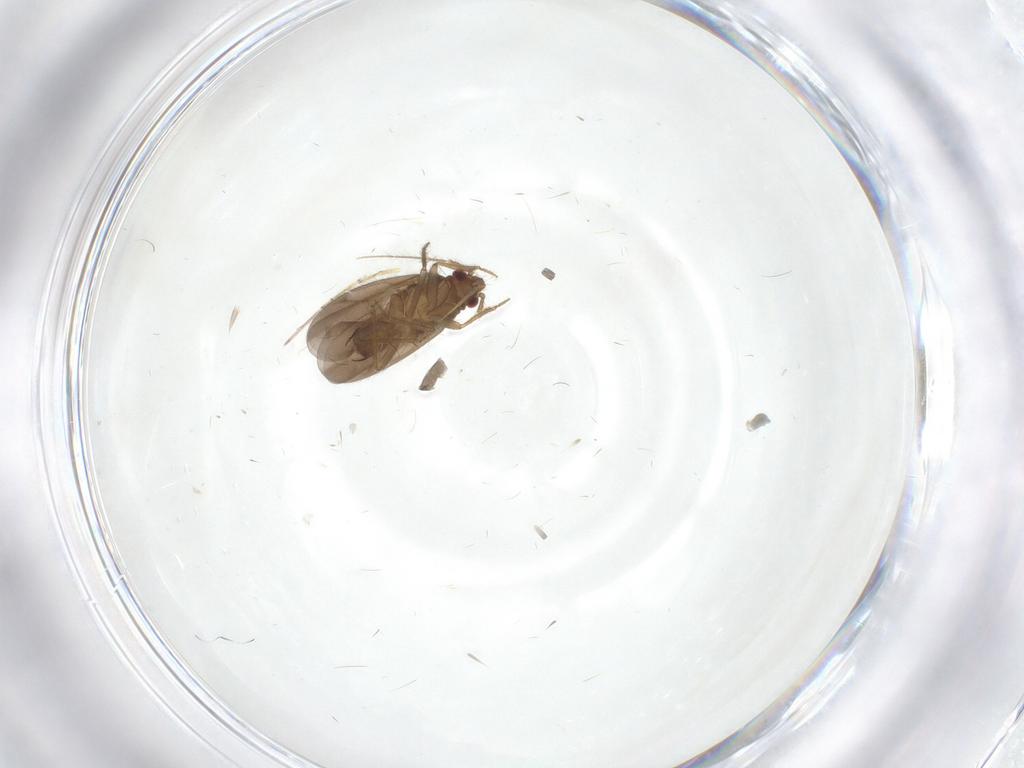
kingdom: Animalia
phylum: Arthropoda
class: Insecta
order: Hemiptera
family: Ceratocombidae
